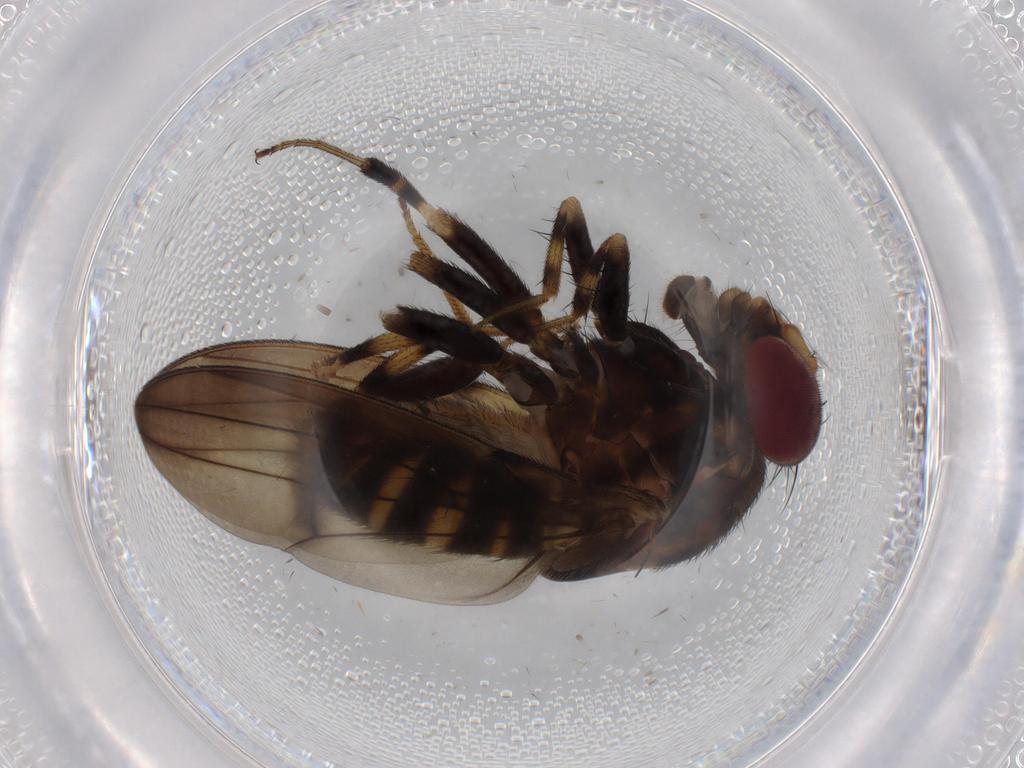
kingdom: Animalia
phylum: Arthropoda
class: Insecta
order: Diptera
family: Drosophilidae
